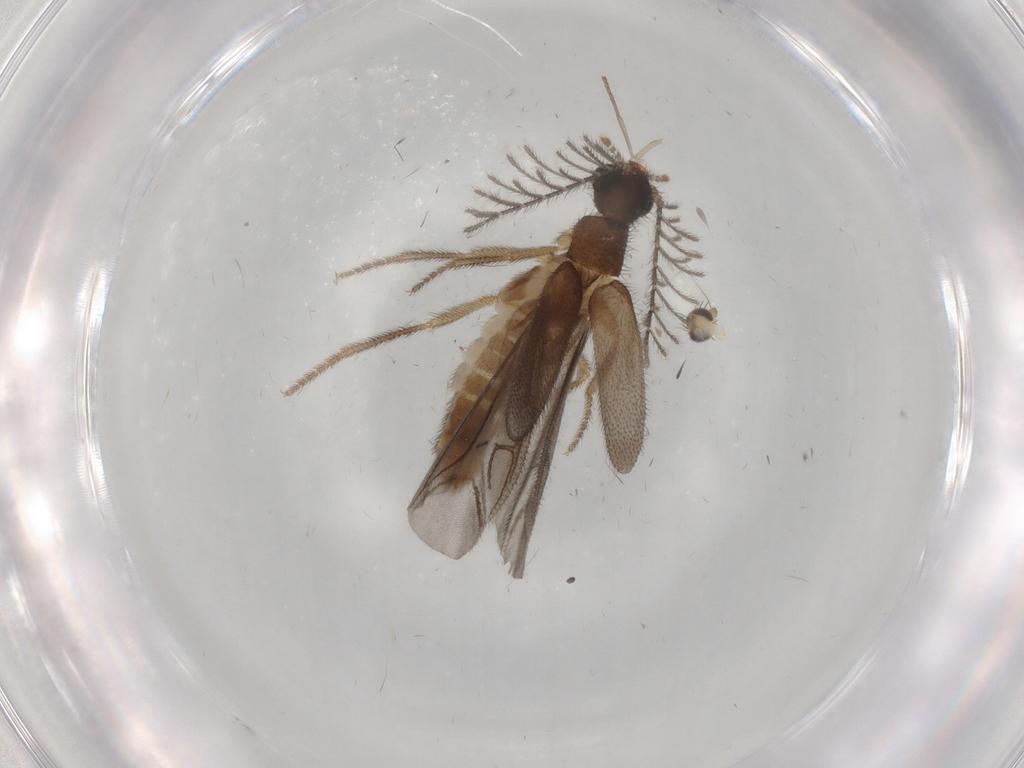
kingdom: Animalia
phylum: Arthropoda
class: Insecta
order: Coleoptera
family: Phengodidae
